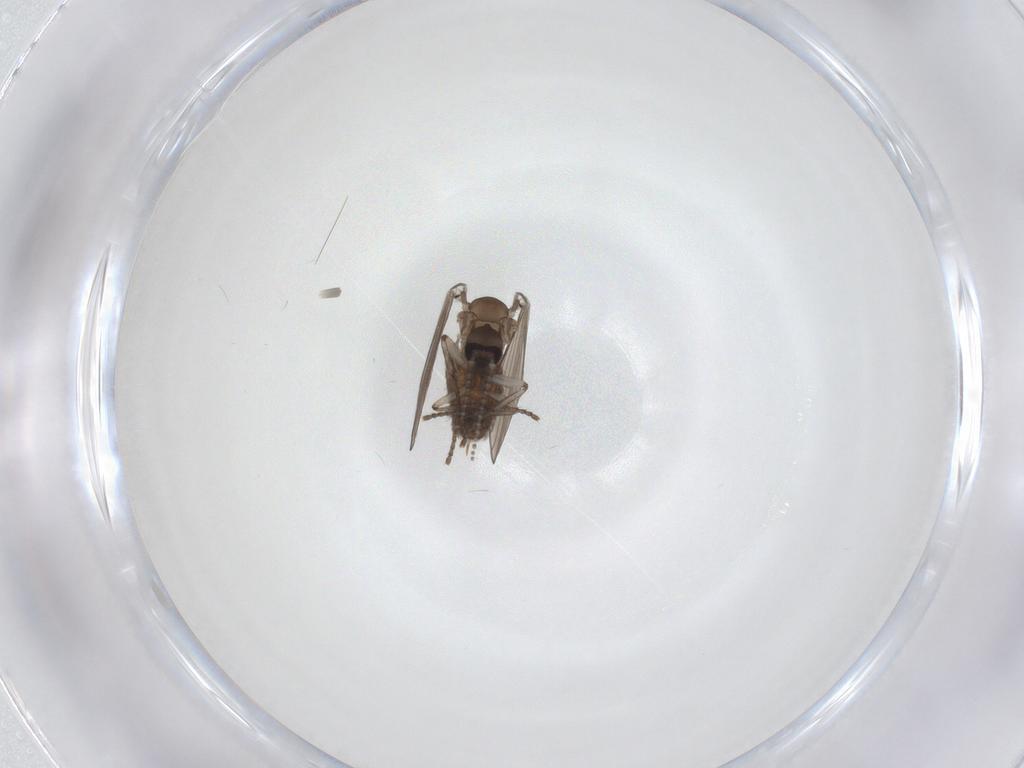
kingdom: Animalia
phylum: Arthropoda
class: Insecta
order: Diptera
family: Psychodidae
